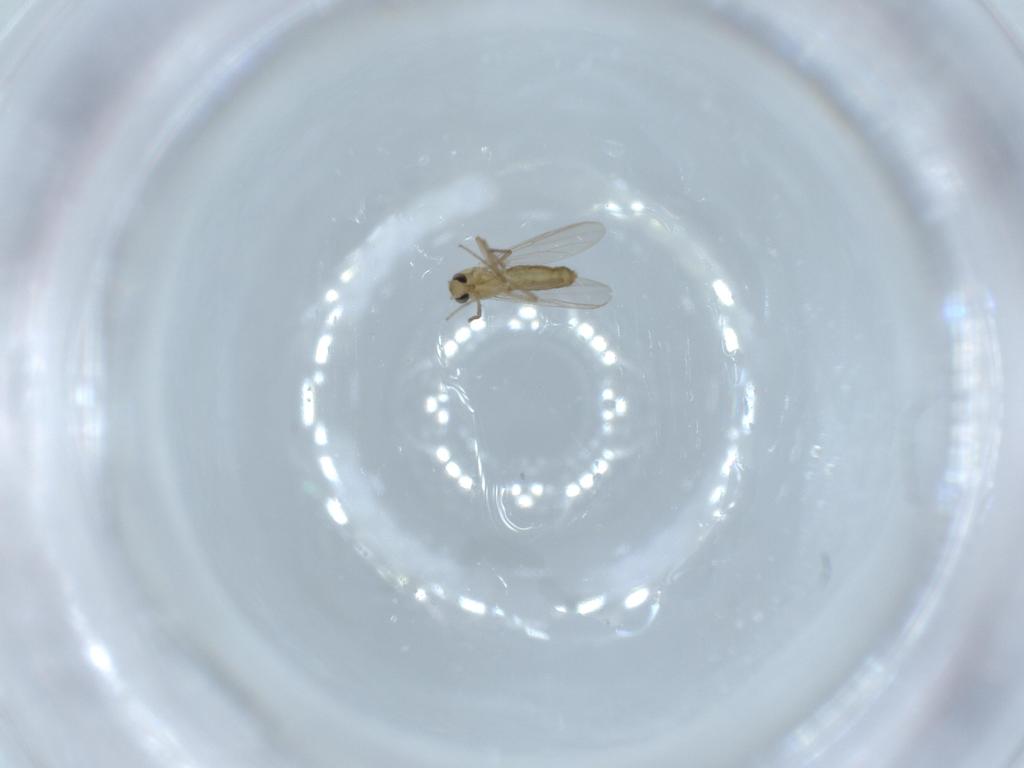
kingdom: Animalia
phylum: Arthropoda
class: Insecta
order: Diptera
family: Chironomidae
